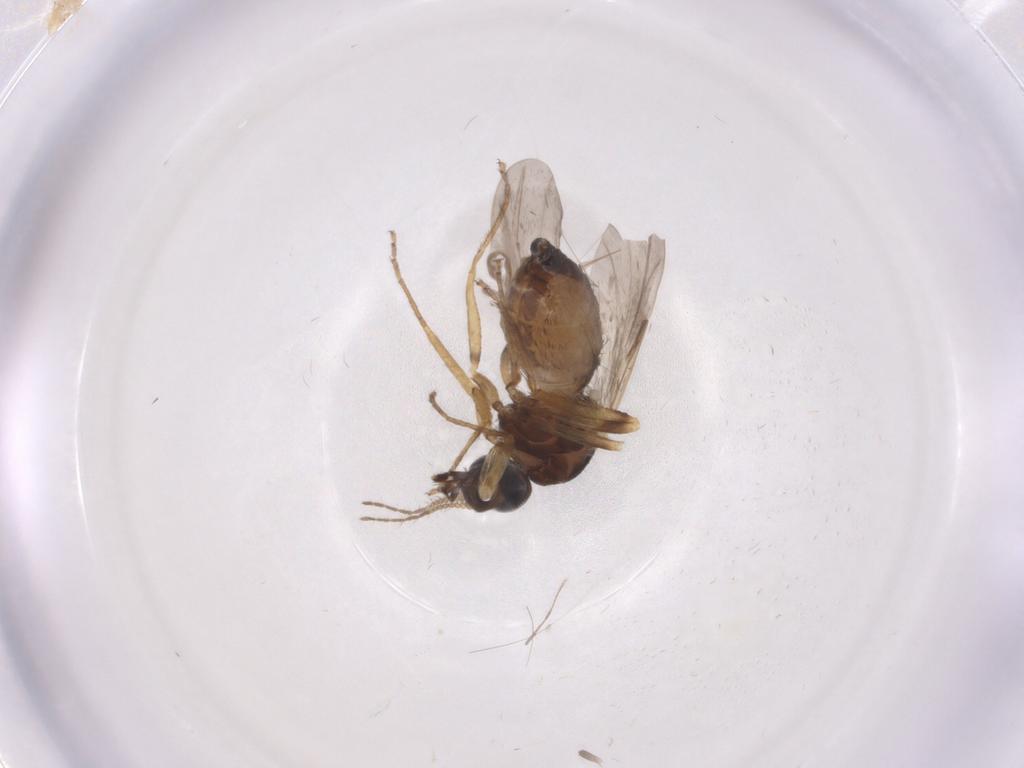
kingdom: Animalia
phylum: Arthropoda
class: Insecta
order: Diptera
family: Ceratopogonidae
